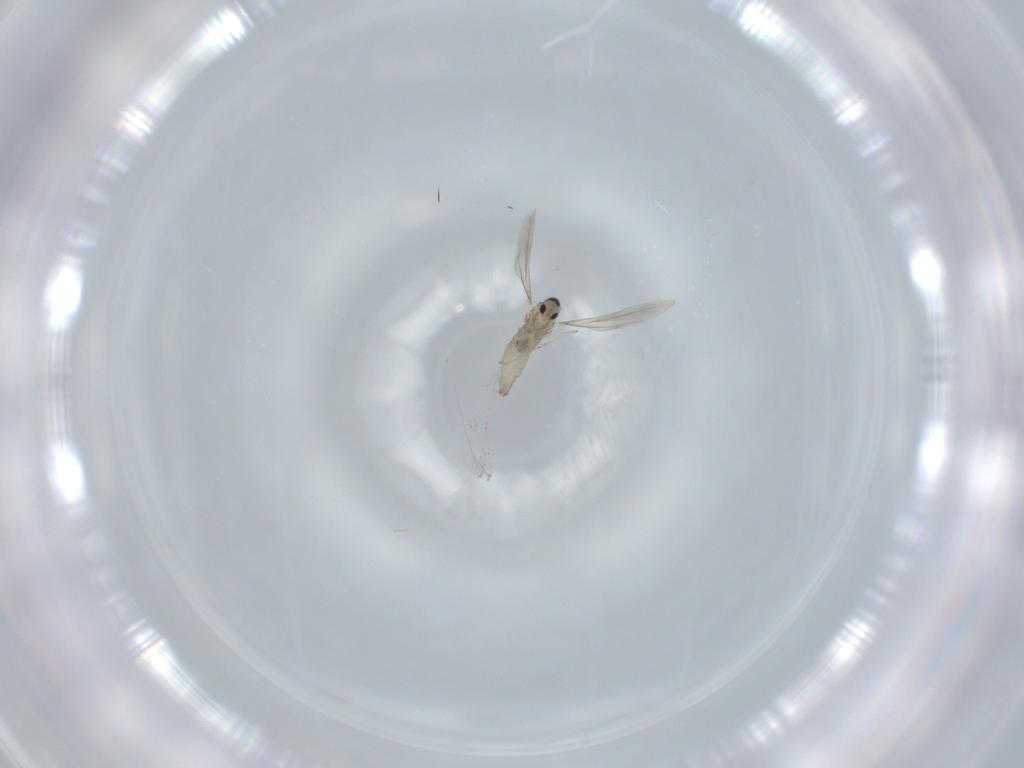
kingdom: Animalia
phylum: Arthropoda
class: Insecta
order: Diptera
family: Cecidomyiidae
